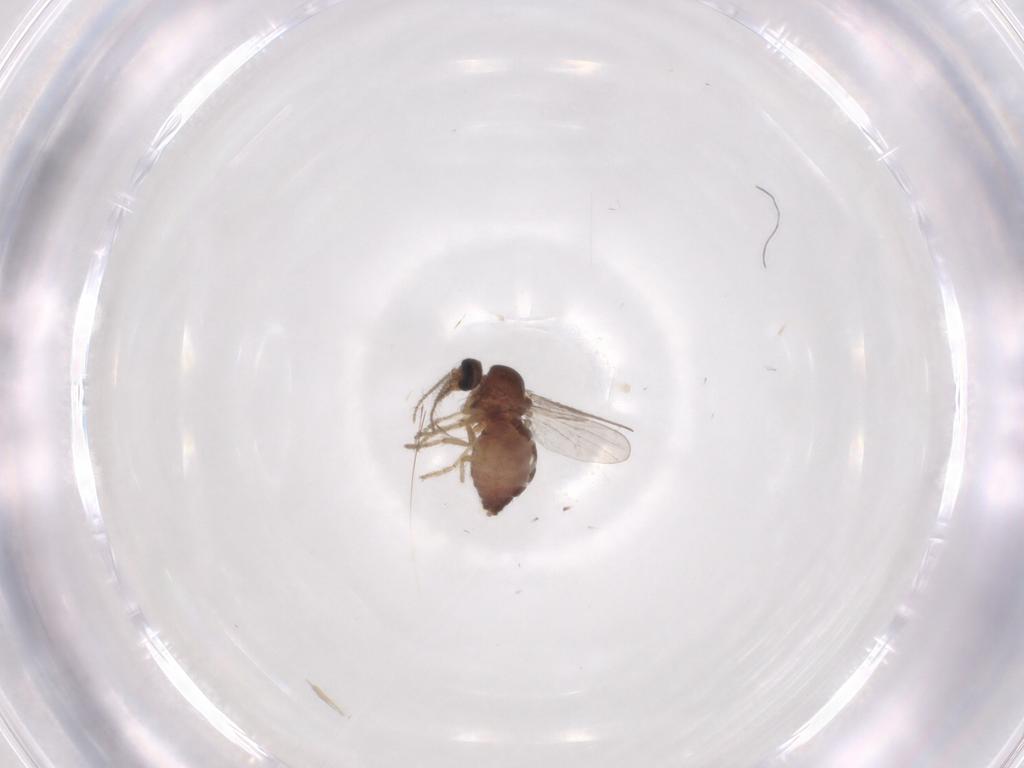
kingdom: Animalia
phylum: Arthropoda
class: Insecta
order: Diptera
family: Ceratopogonidae
